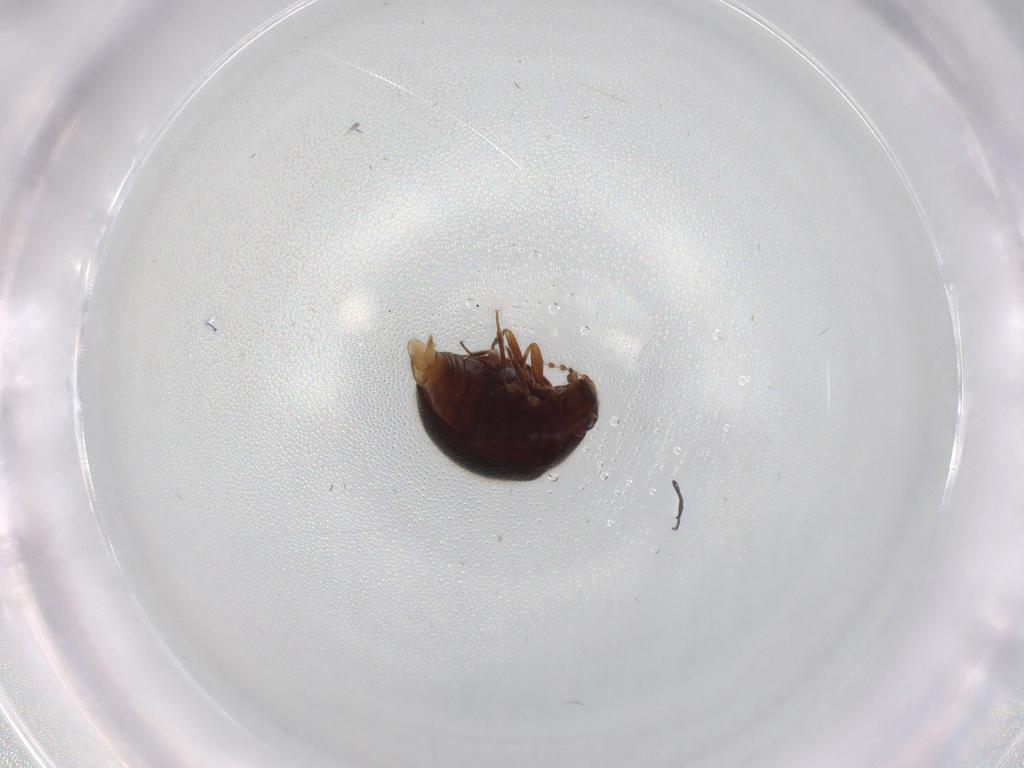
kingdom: Animalia
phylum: Arthropoda
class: Insecta
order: Coleoptera
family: Anamorphidae
